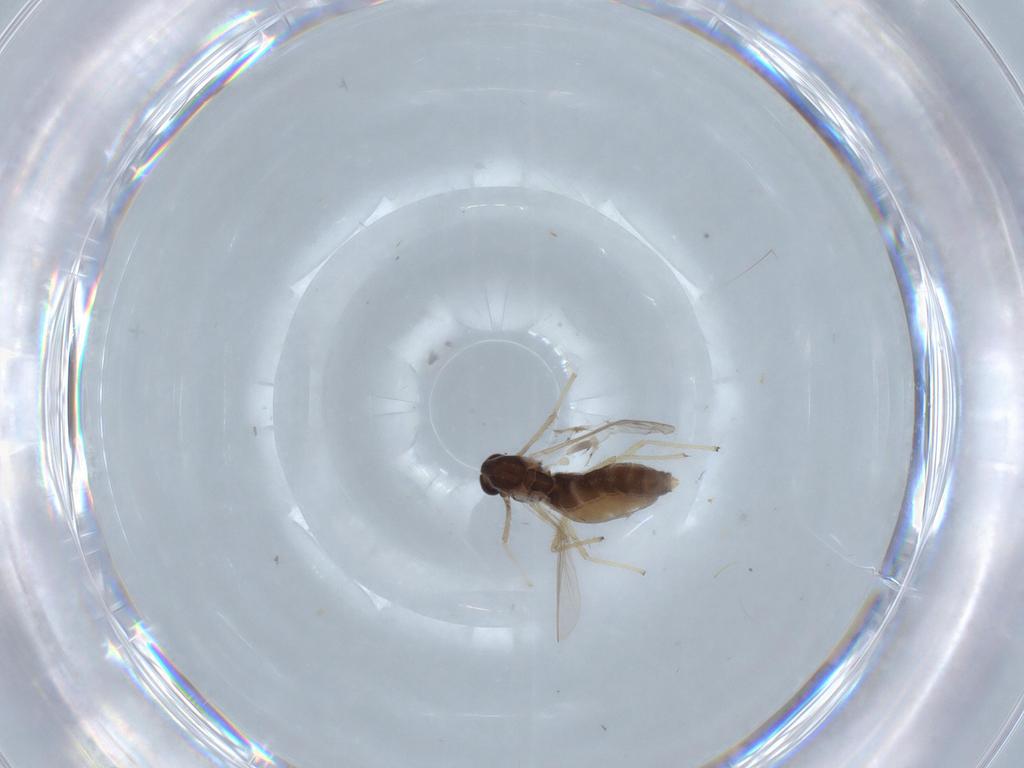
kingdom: Animalia
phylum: Arthropoda
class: Insecta
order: Diptera
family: Chironomidae
